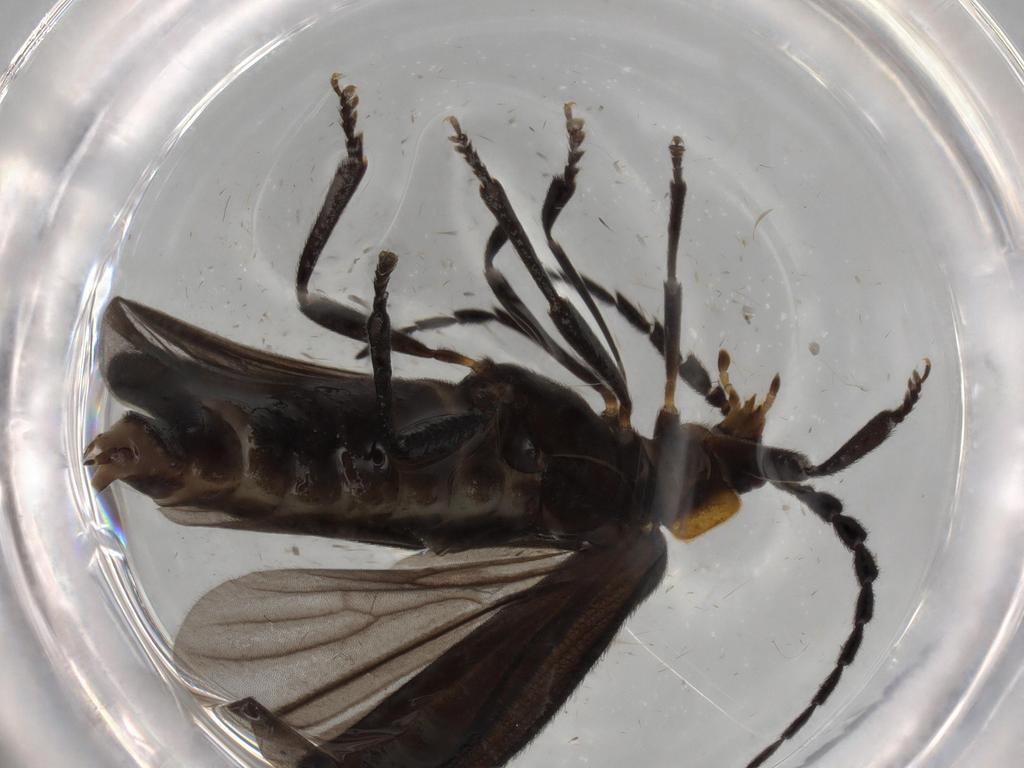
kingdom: Animalia
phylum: Arthropoda
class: Insecta
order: Coleoptera
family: Lycidae
